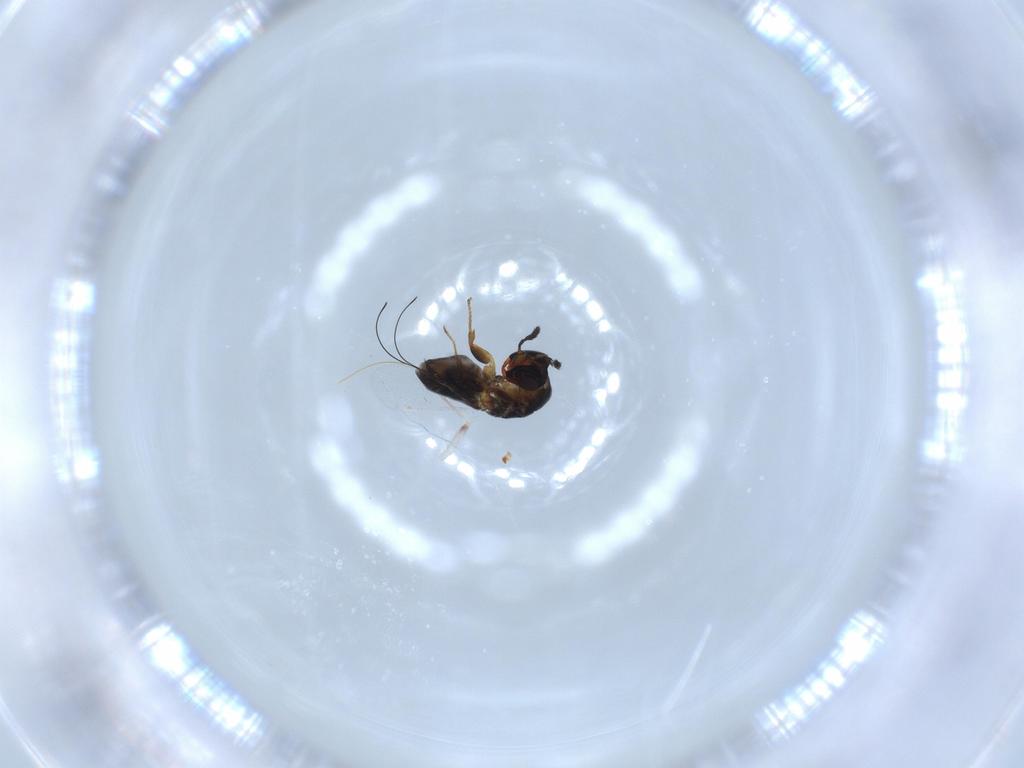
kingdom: Animalia
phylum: Arthropoda
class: Insecta
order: Hymenoptera
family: Agaonidae
